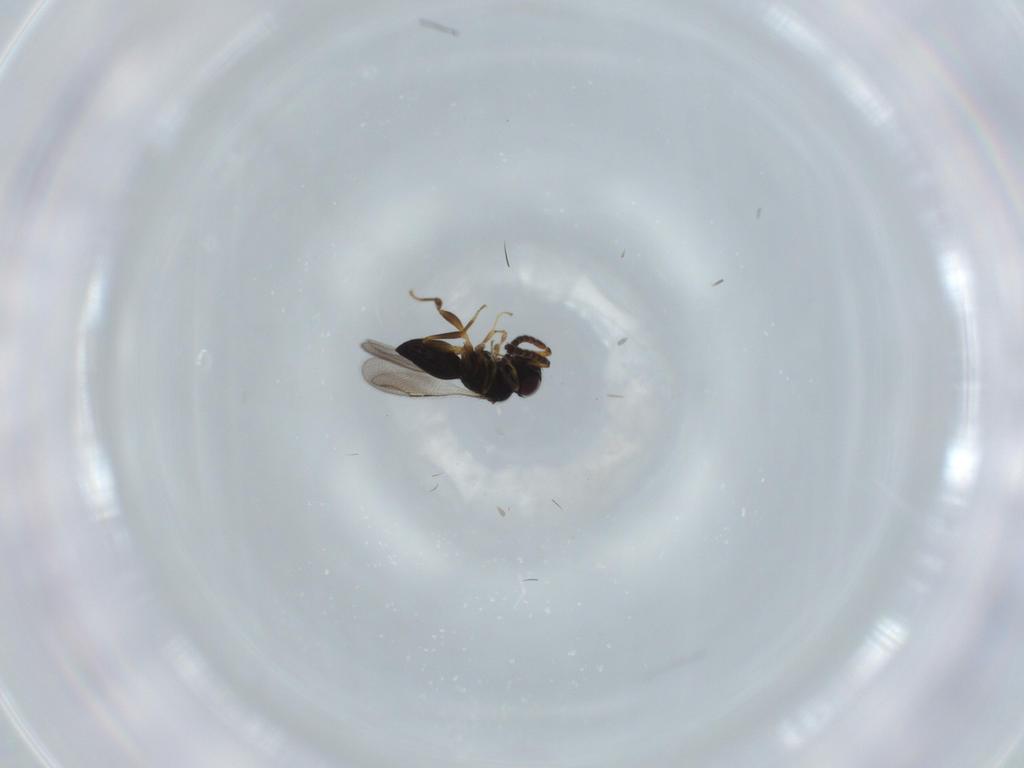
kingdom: Animalia
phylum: Arthropoda
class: Insecta
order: Hymenoptera
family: Ceraphronidae
